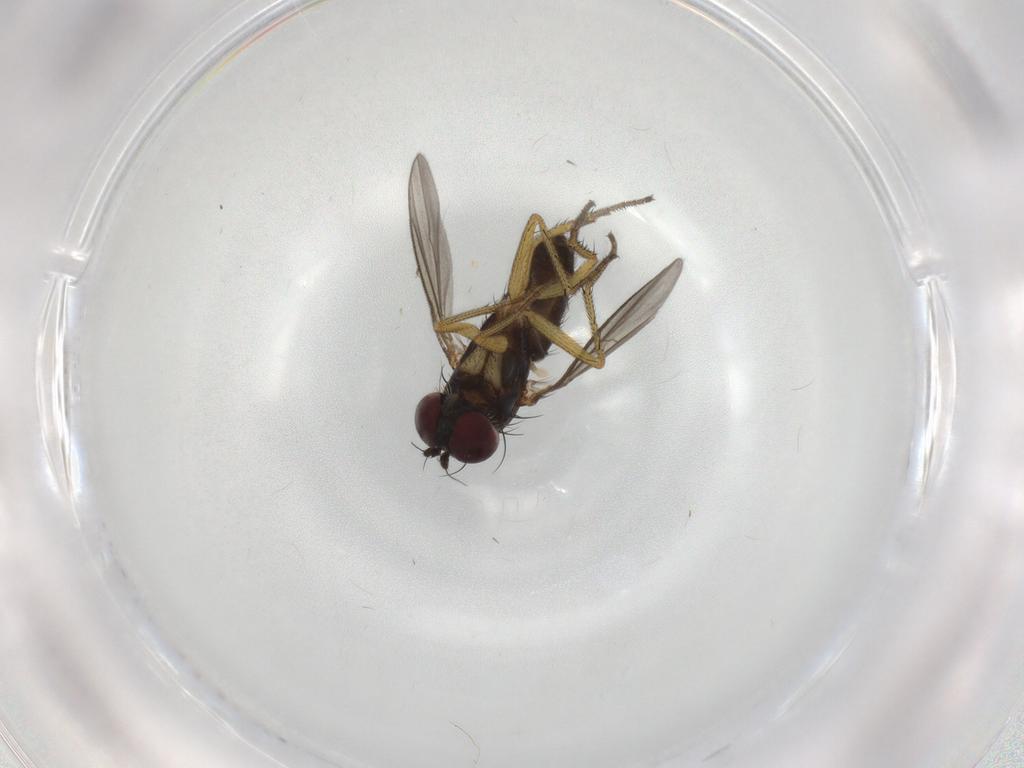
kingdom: Animalia
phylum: Arthropoda
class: Insecta
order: Diptera
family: Dolichopodidae
